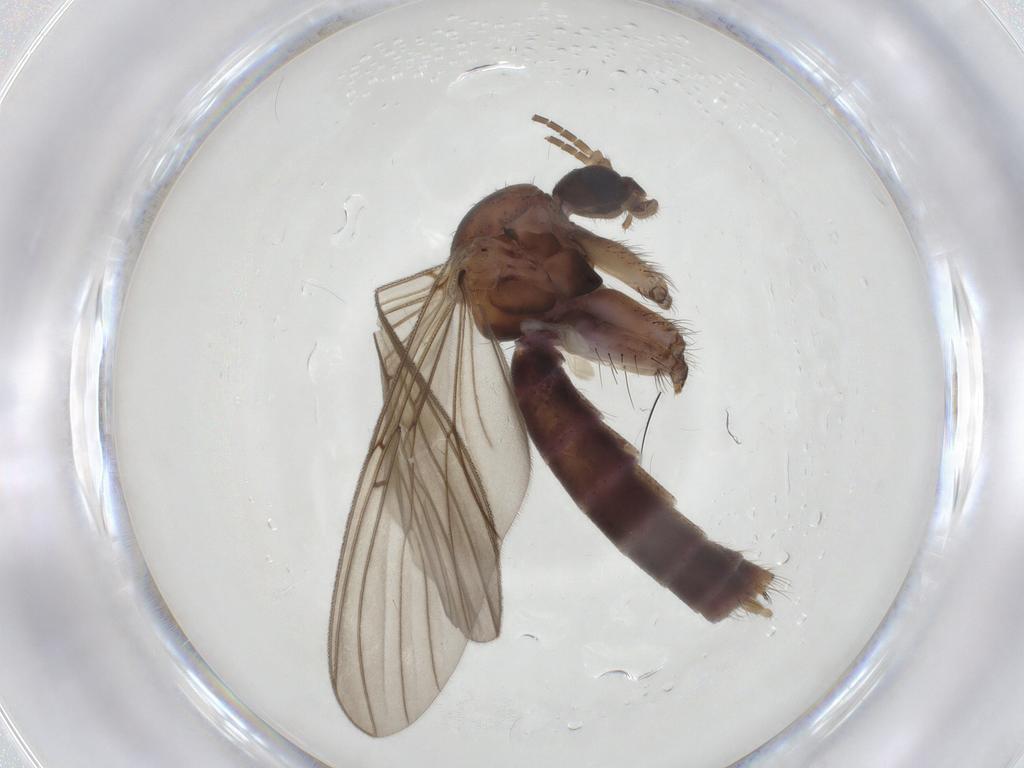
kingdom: Animalia
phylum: Arthropoda
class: Insecta
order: Diptera
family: Mycetophilidae
